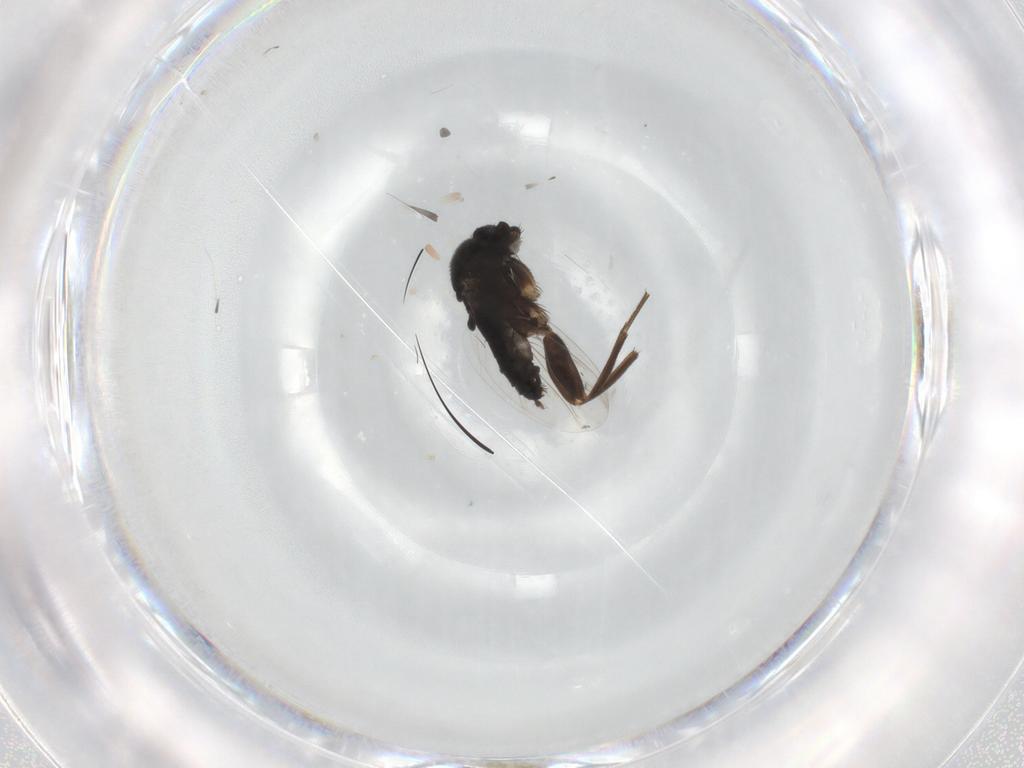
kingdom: Animalia
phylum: Arthropoda
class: Insecta
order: Diptera
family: Phoridae
